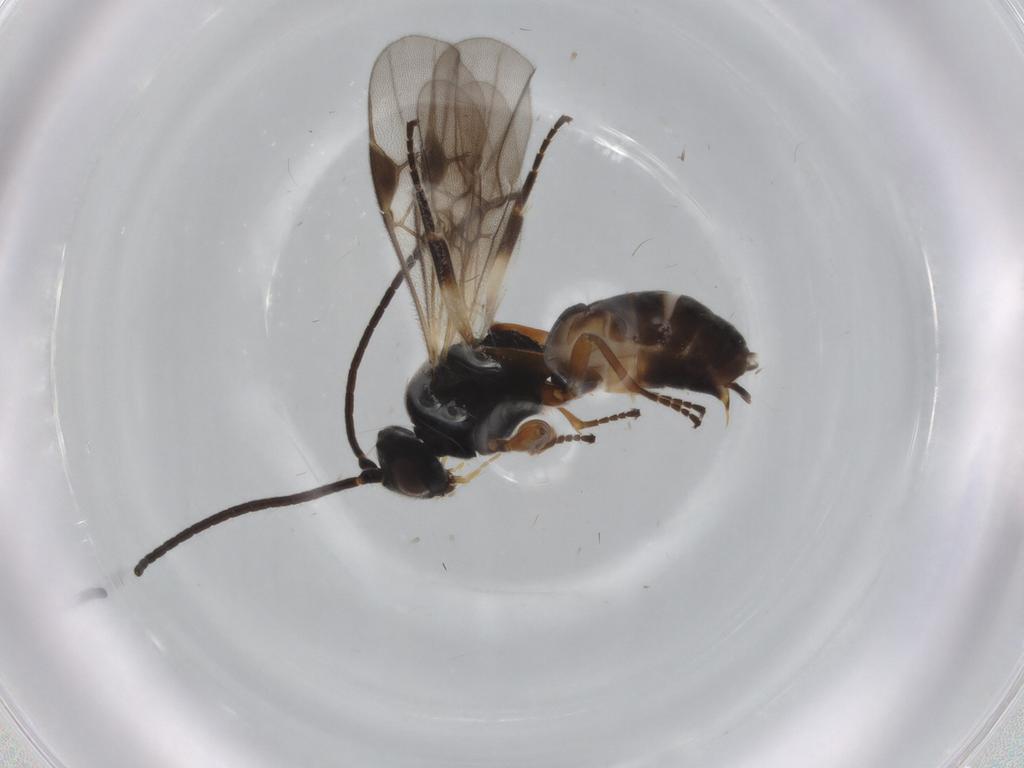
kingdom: Animalia
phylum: Arthropoda
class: Insecta
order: Hymenoptera
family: Braconidae
